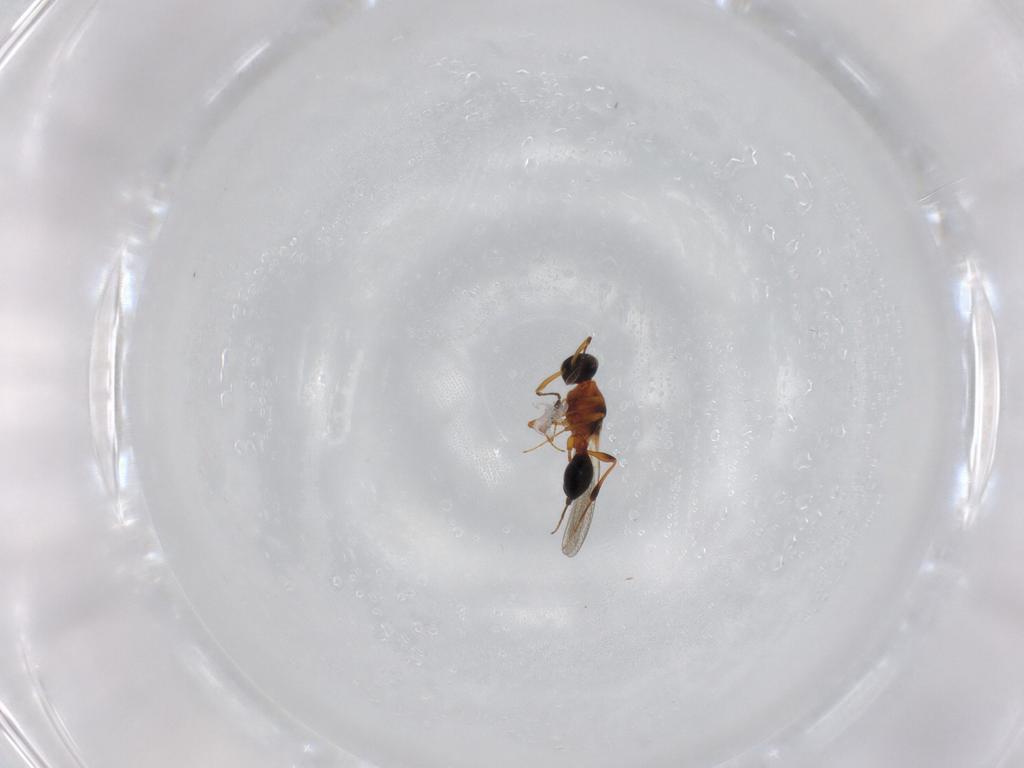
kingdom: Animalia
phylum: Arthropoda
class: Insecta
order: Hymenoptera
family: Platygastridae
